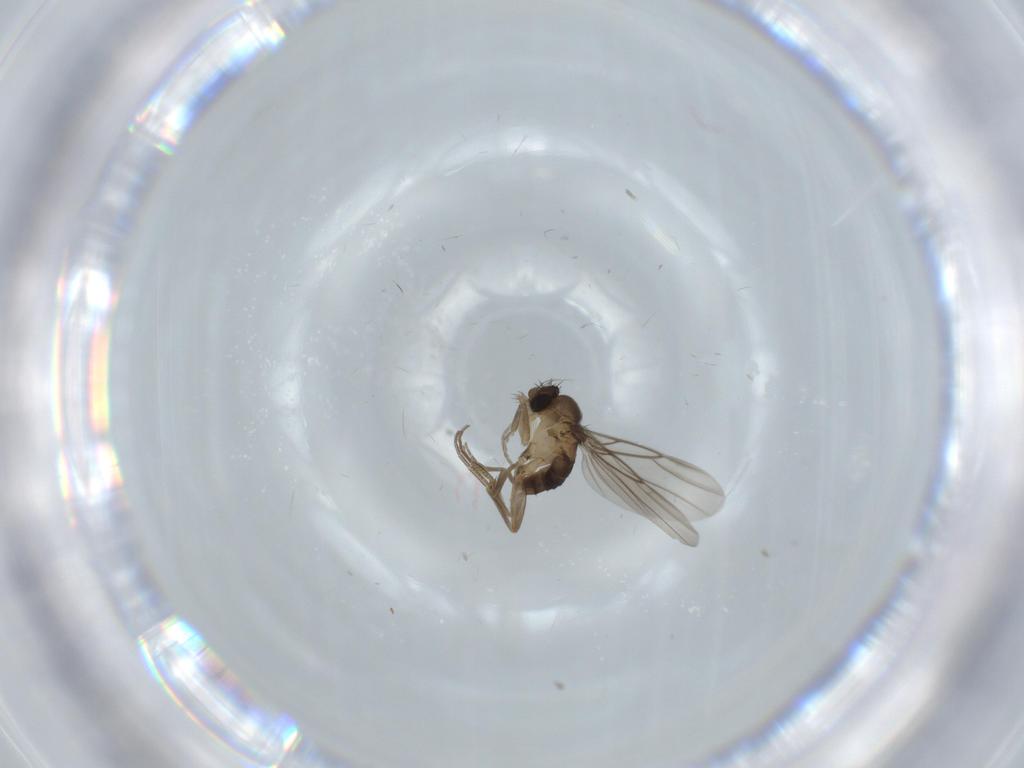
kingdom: Animalia
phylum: Arthropoda
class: Insecta
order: Diptera
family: Phoridae
